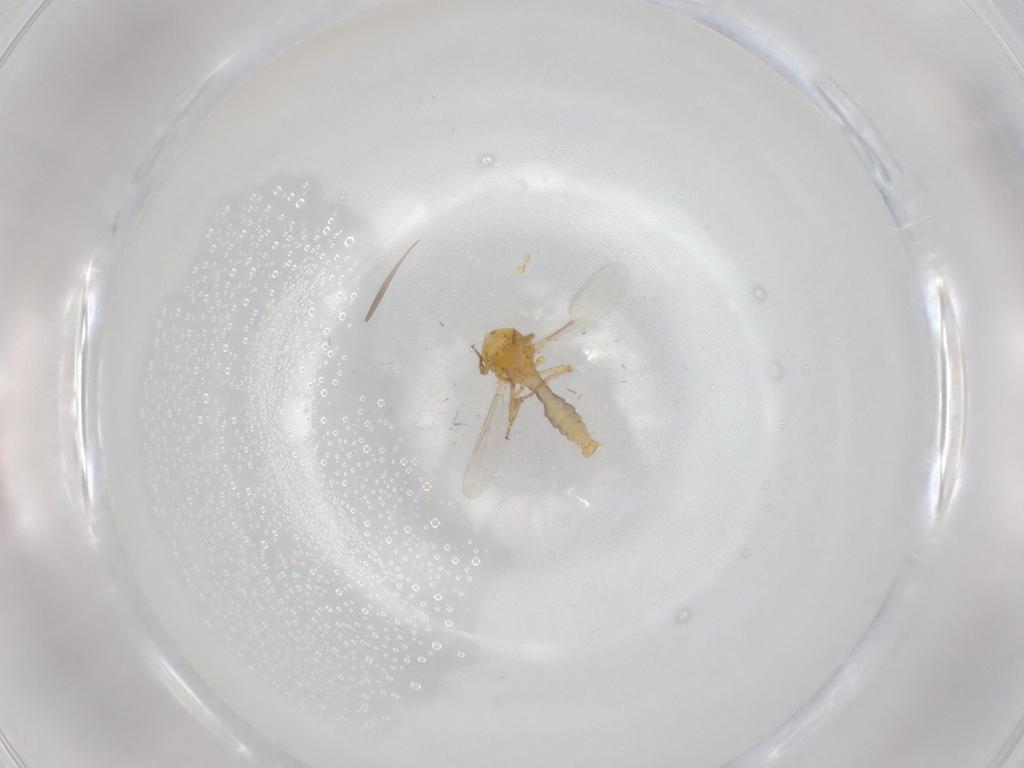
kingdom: Animalia
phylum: Arthropoda
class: Insecta
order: Diptera
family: Ceratopogonidae
